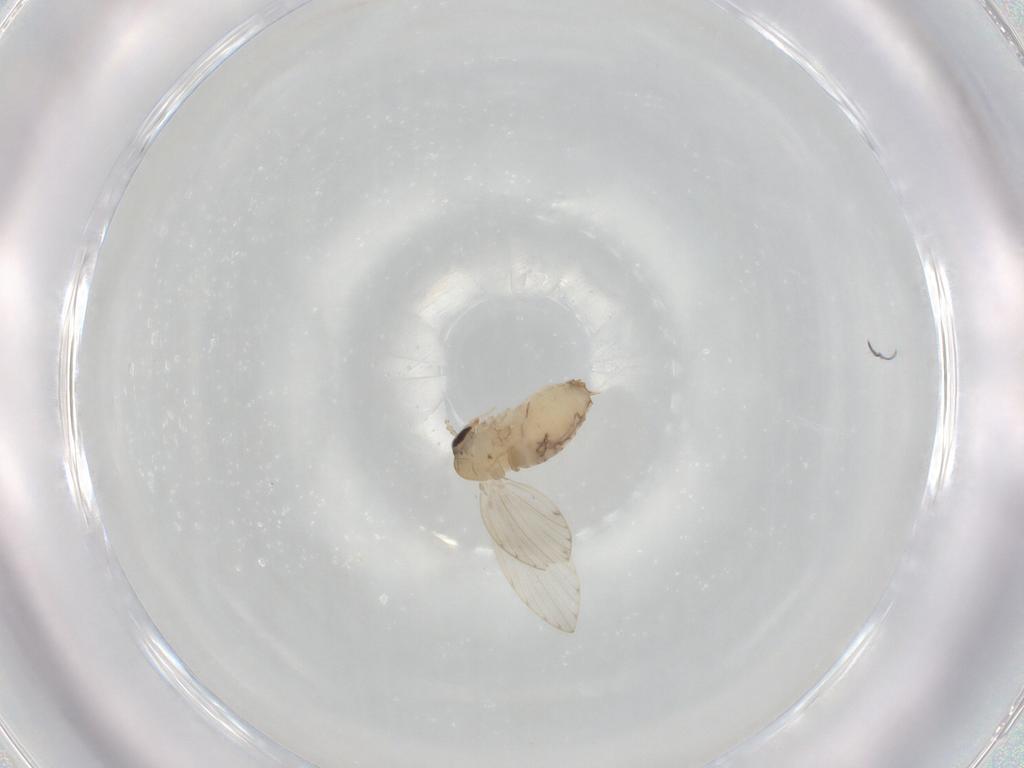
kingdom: Animalia
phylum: Arthropoda
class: Insecta
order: Diptera
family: Psychodidae
